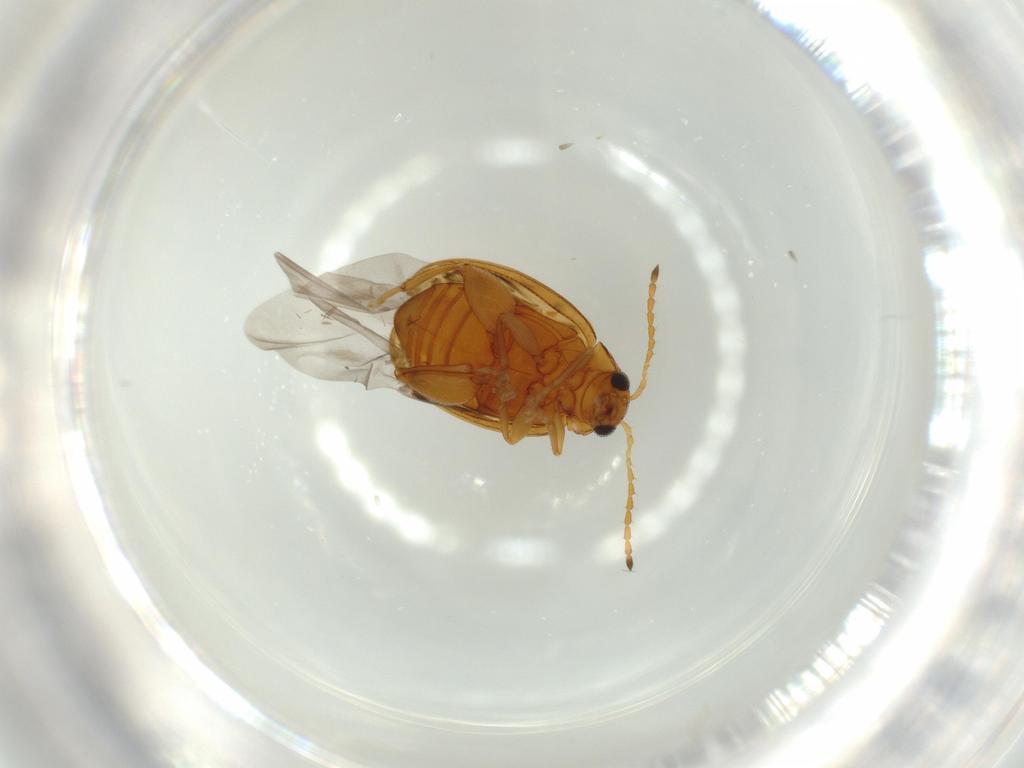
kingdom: Animalia
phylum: Arthropoda
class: Insecta
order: Coleoptera
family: Chrysomelidae
